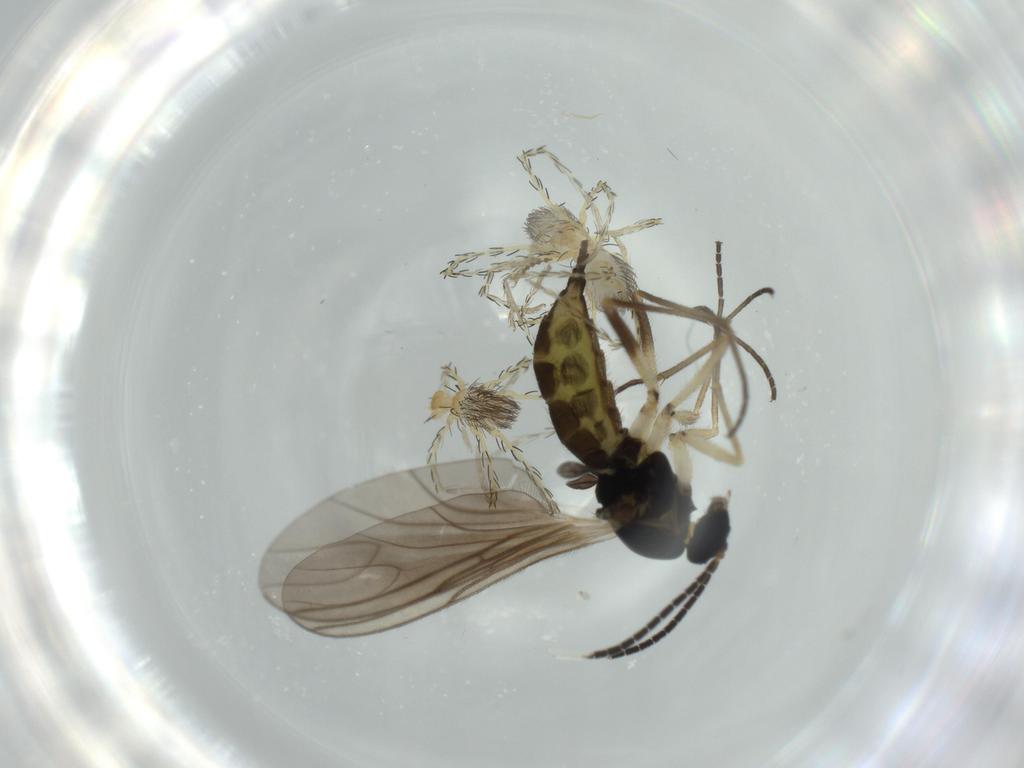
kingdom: Animalia
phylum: Arthropoda
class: Arachnida
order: Trombidiformes
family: Erythraeidae
